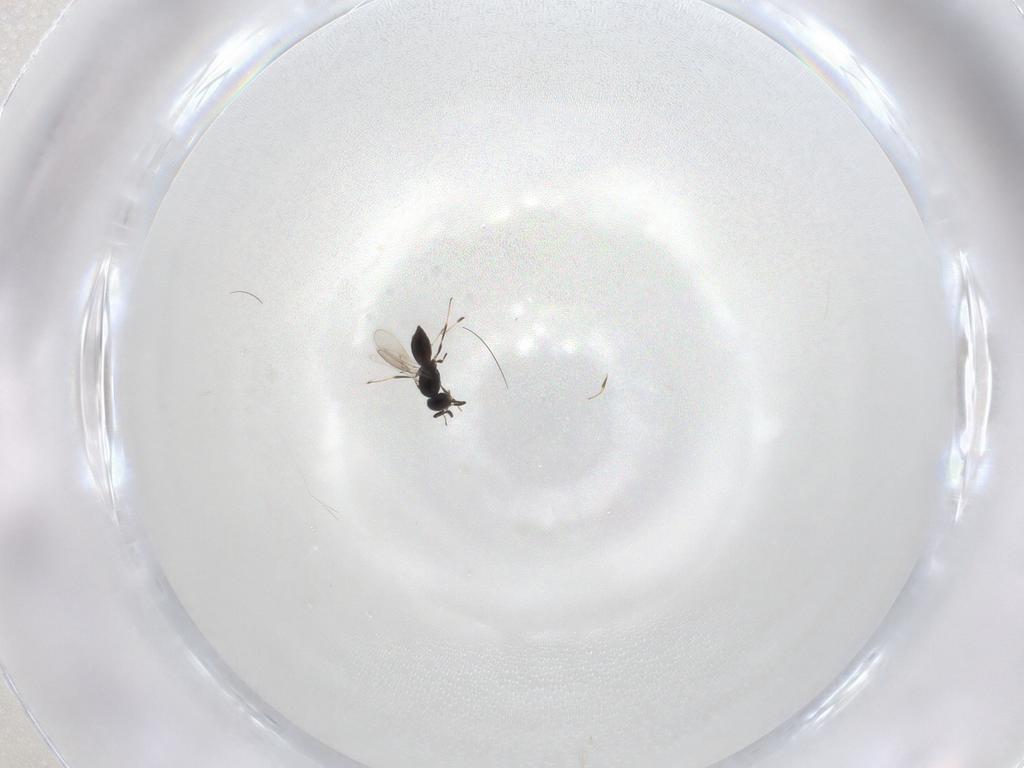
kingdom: Animalia
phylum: Arthropoda
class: Insecta
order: Hymenoptera
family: Scelionidae
